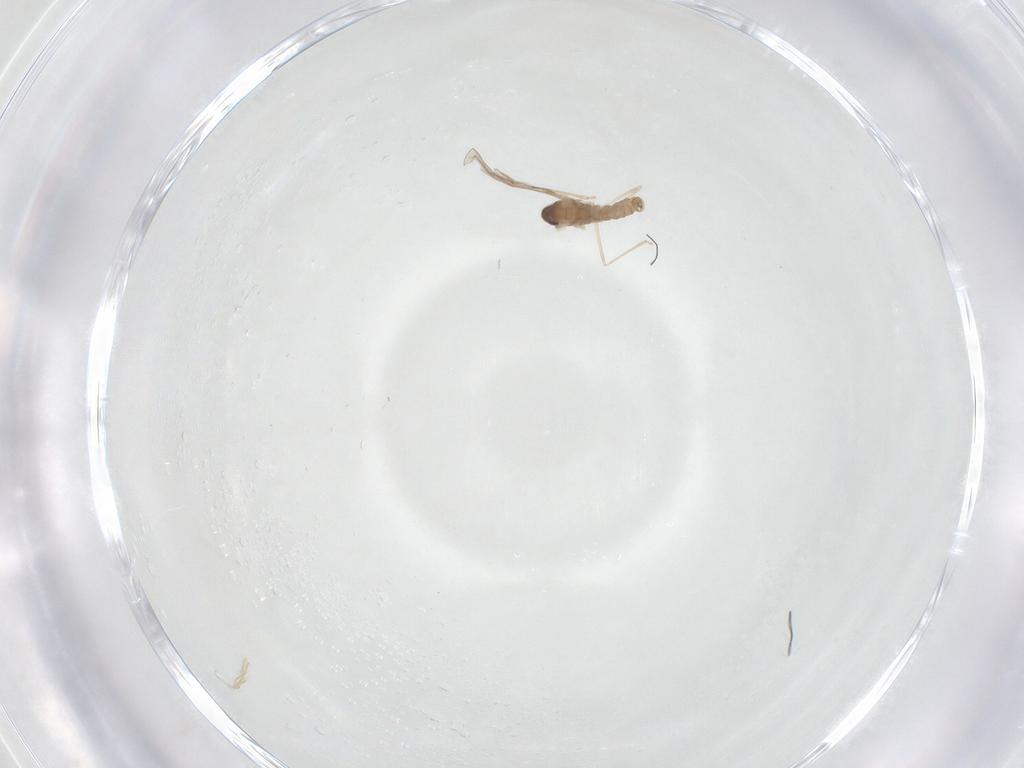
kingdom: Animalia
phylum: Arthropoda
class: Insecta
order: Diptera
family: Cecidomyiidae
